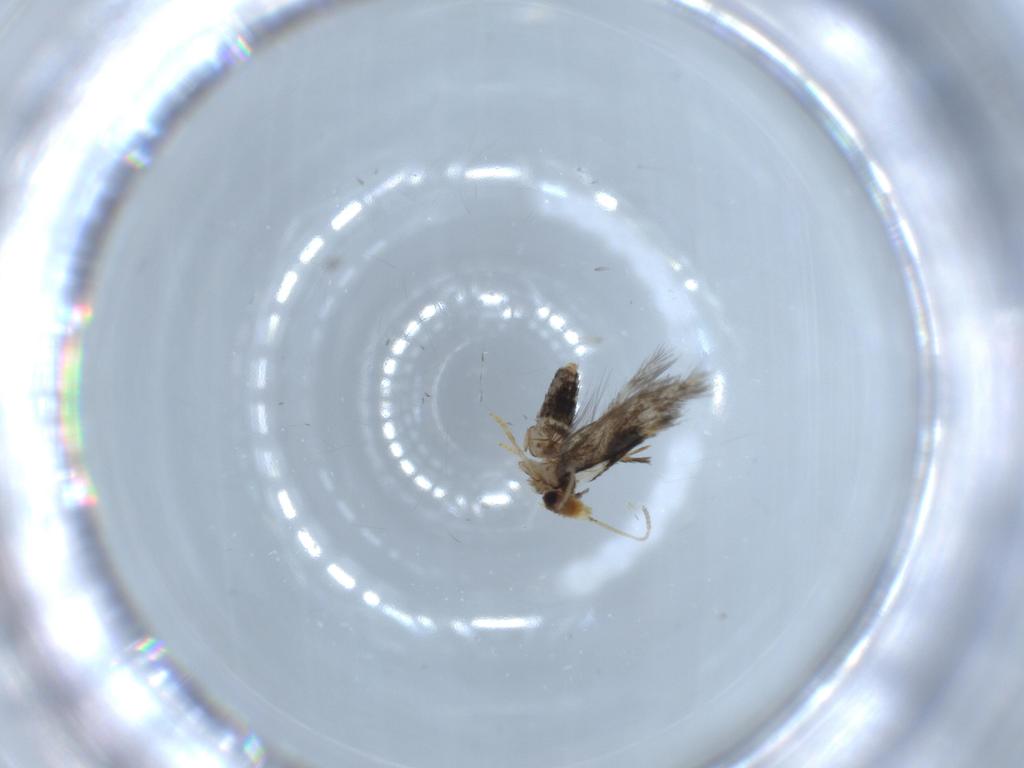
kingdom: Animalia
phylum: Arthropoda
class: Insecta
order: Lepidoptera
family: Nepticulidae
